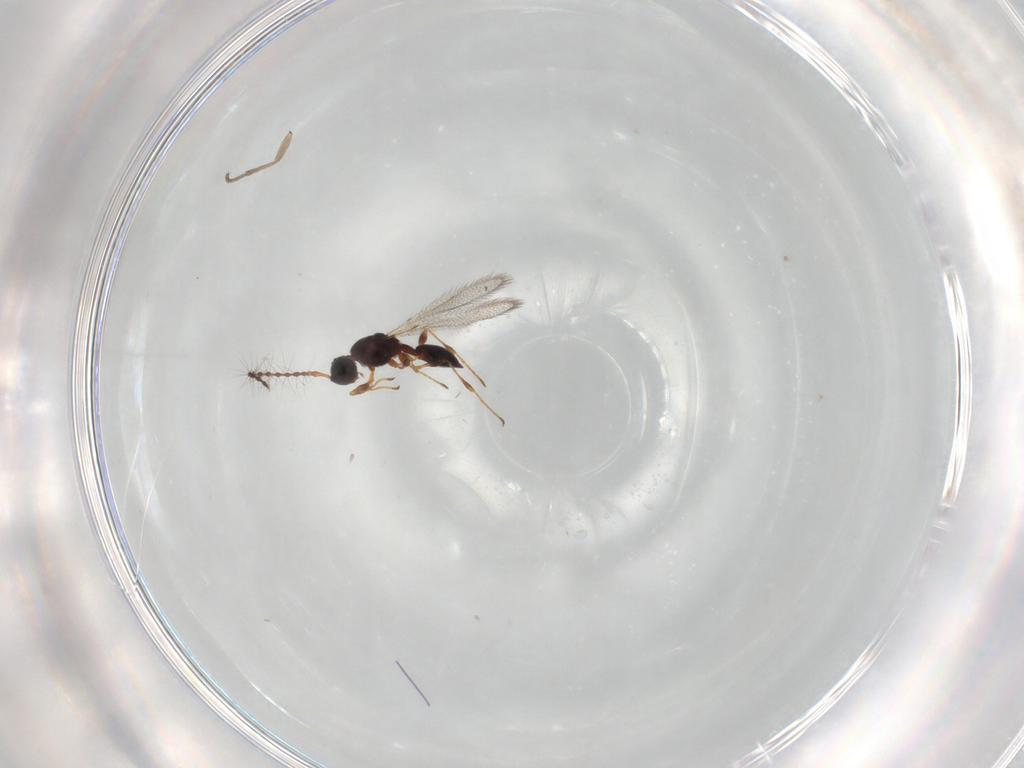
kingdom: Animalia
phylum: Arthropoda
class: Insecta
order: Hymenoptera
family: Diapriidae
